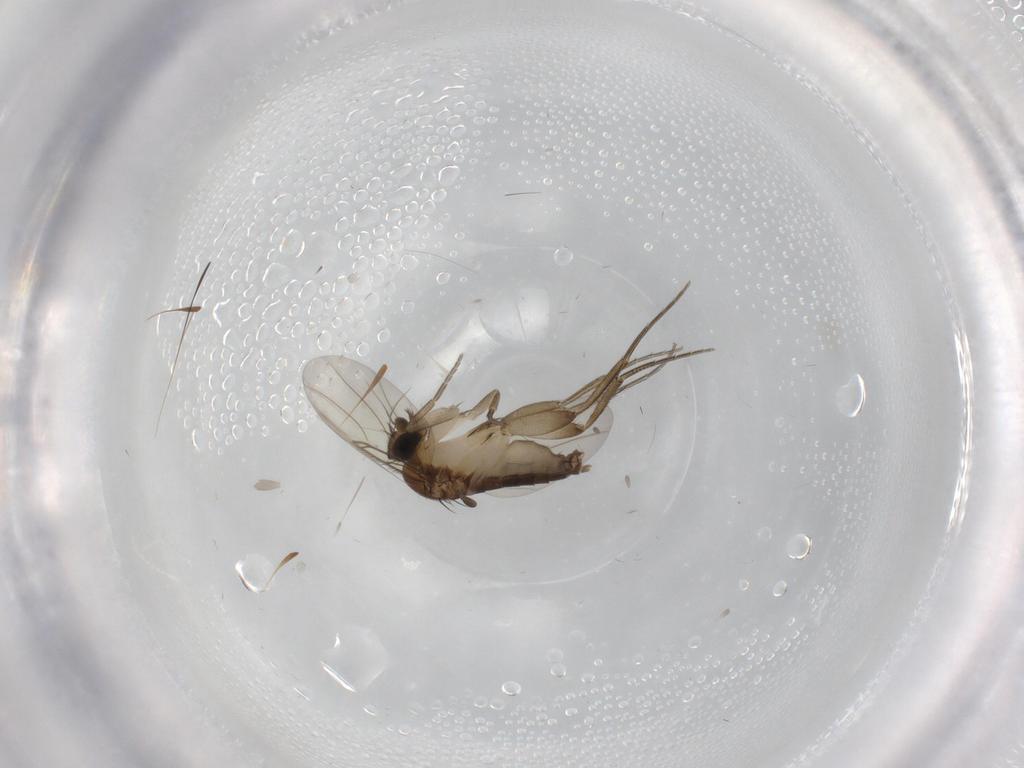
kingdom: Animalia
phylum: Arthropoda
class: Insecta
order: Diptera
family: Phoridae
